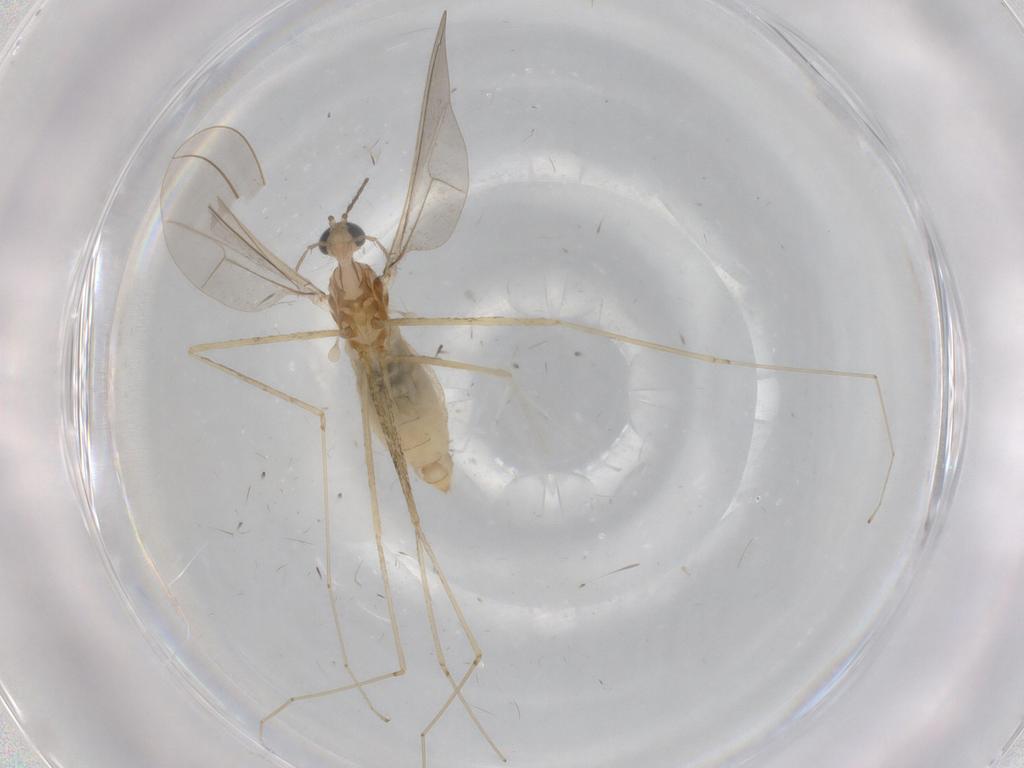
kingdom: Animalia
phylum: Arthropoda
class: Insecta
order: Diptera
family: Cecidomyiidae
